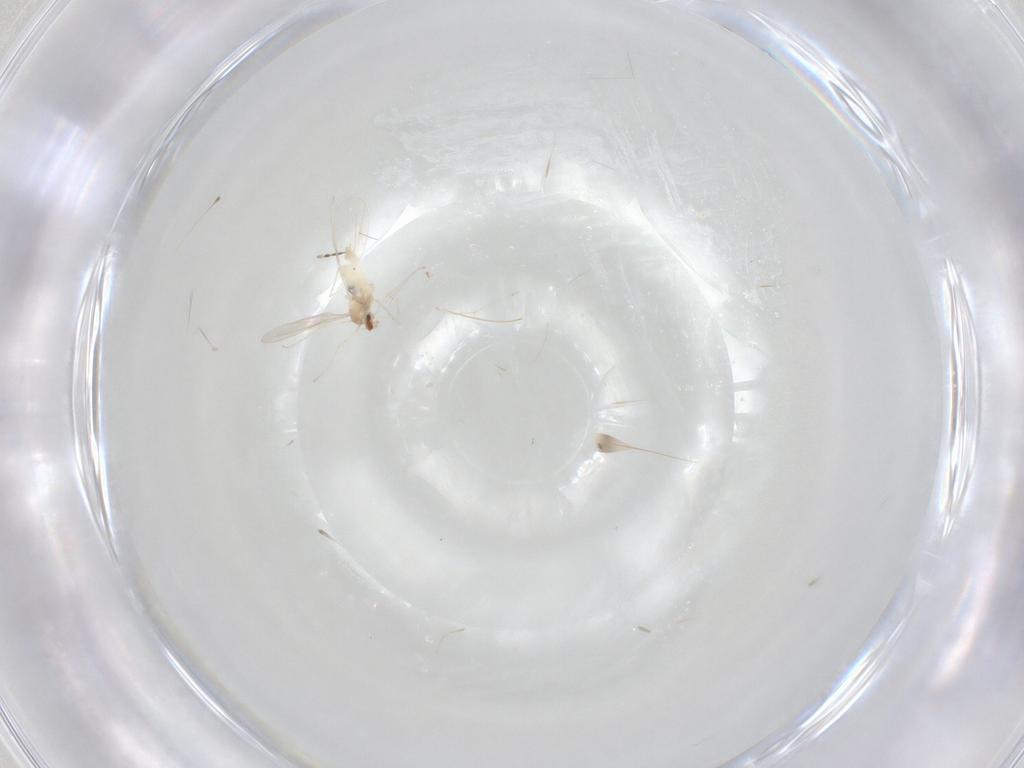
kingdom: Animalia
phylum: Arthropoda
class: Insecta
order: Diptera
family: Cecidomyiidae
